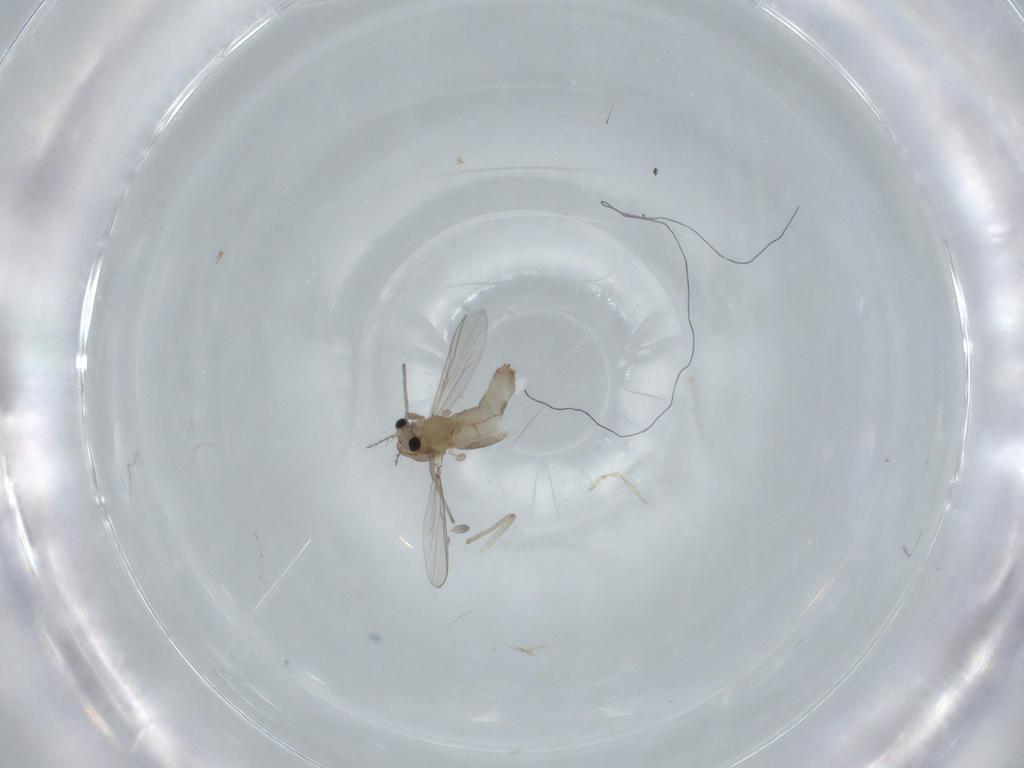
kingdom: Animalia
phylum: Arthropoda
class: Insecta
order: Diptera
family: Chironomidae
